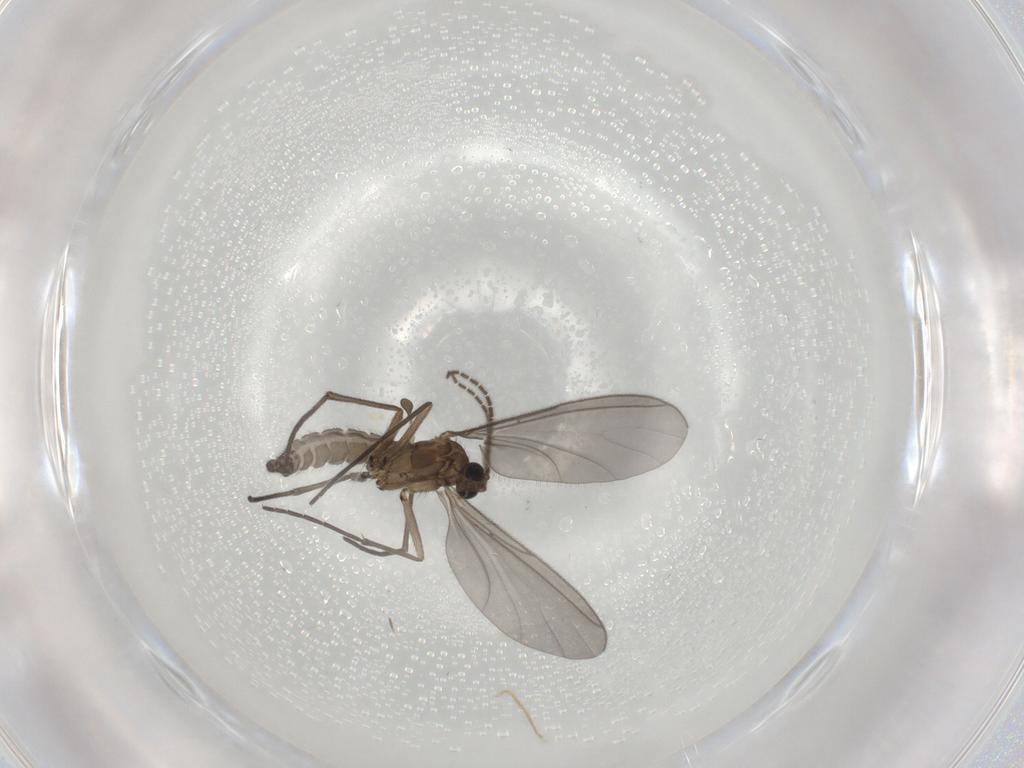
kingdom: Animalia
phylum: Arthropoda
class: Insecta
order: Diptera
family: Sciaridae
